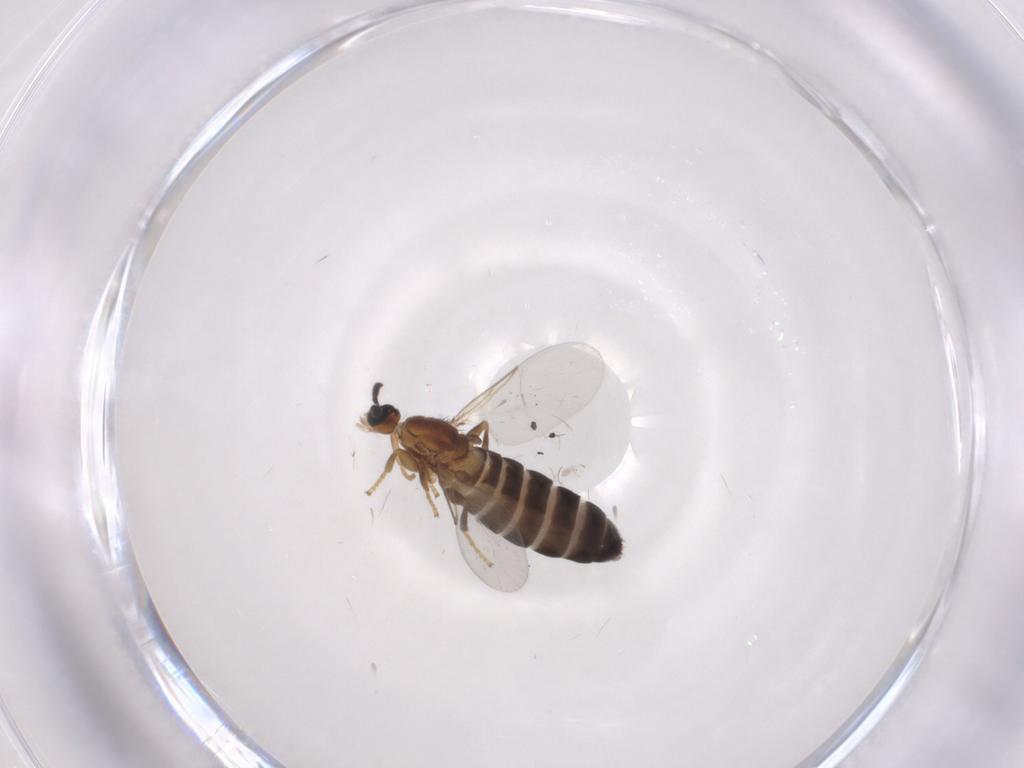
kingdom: Animalia
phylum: Arthropoda
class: Insecta
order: Diptera
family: Scatopsidae
